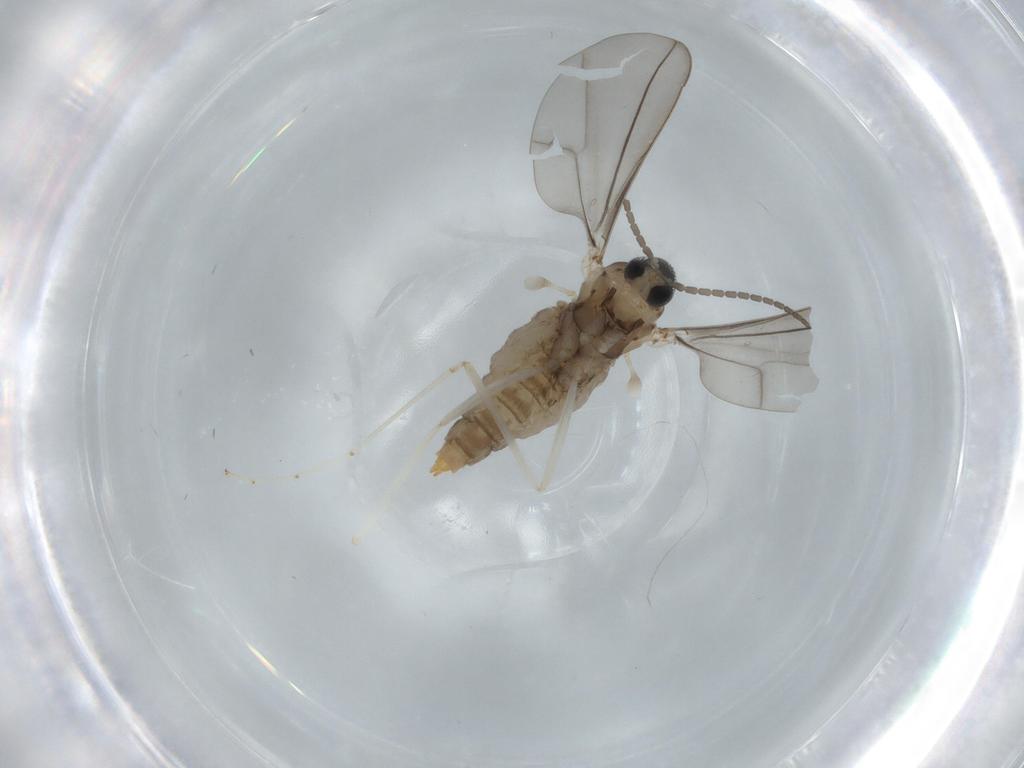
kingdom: Animalia
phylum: Arthropoda
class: Insecta
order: Diptera
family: Cecidomyiidae
